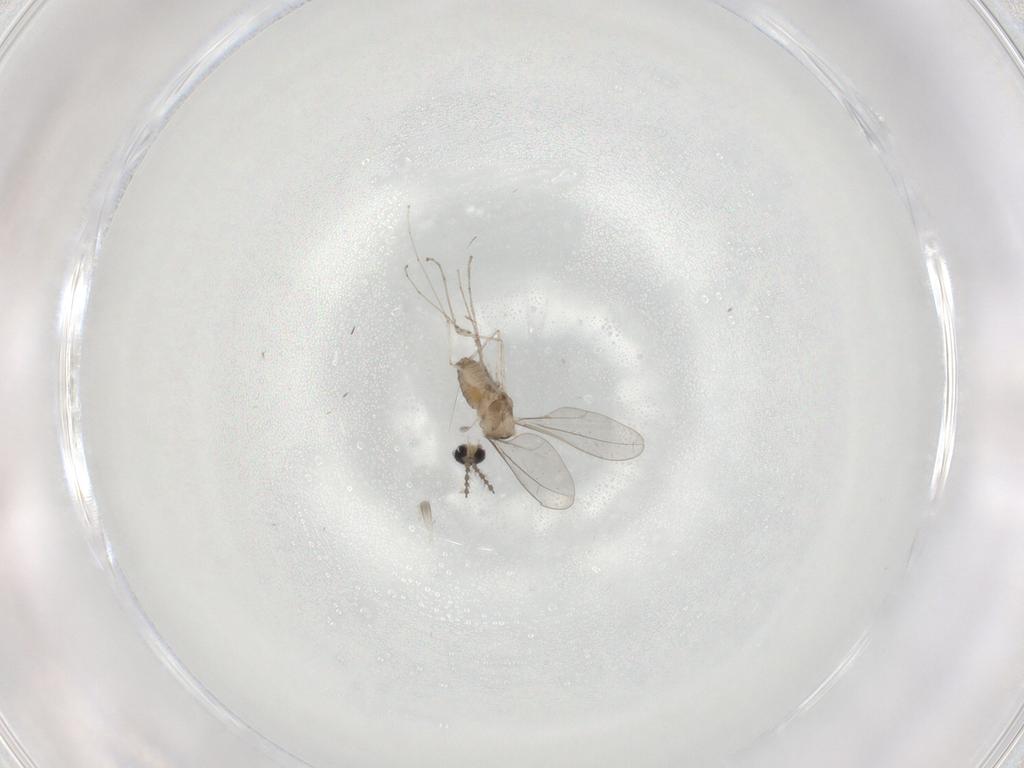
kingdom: Animalia
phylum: Arthropoda
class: Insecta
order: Diptera
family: Cecidomyiidae
